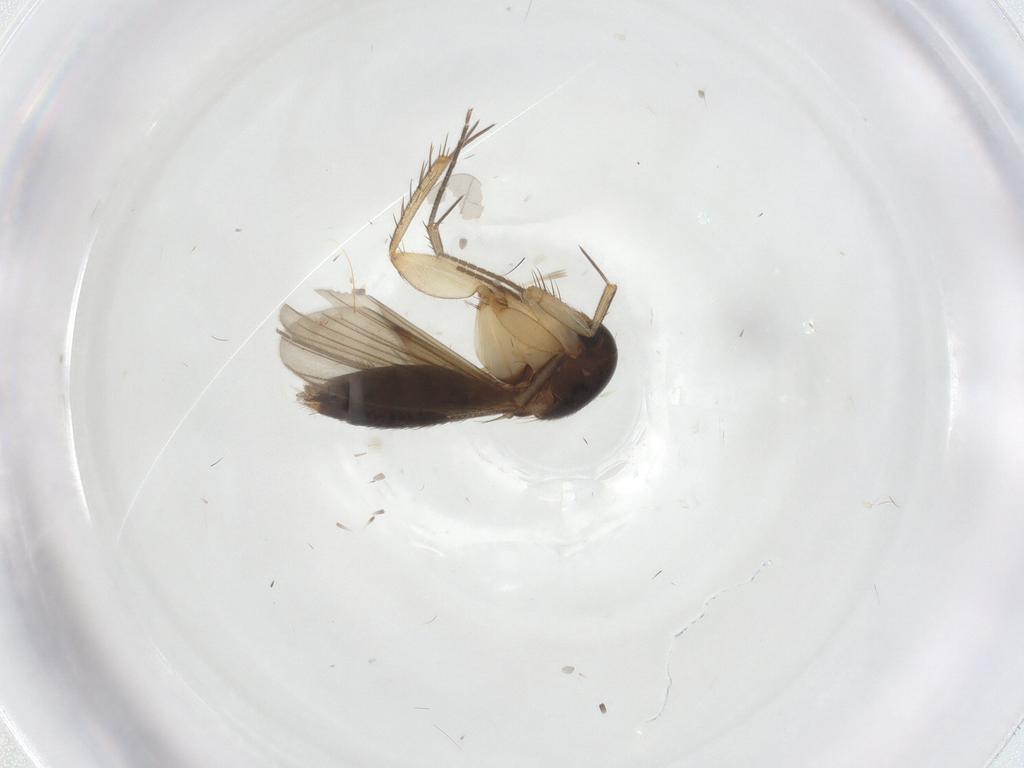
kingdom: Animalia
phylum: Arthropoda
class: Insecta
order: Diptera
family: Mycetophilidae
